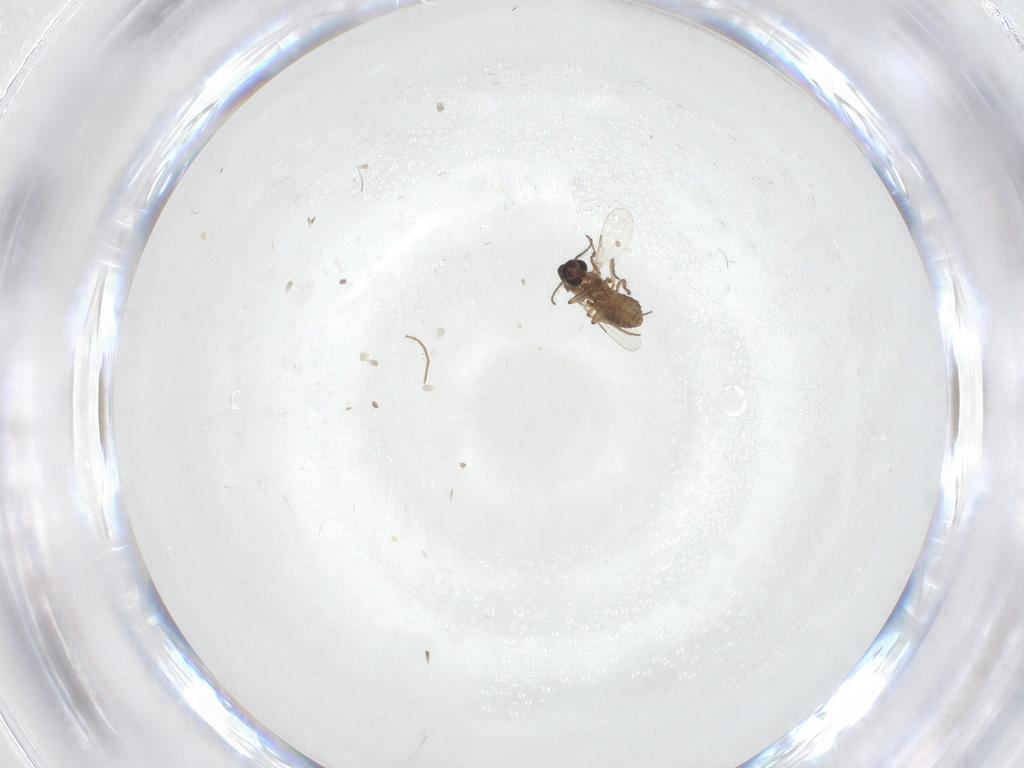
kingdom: Animalia
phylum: Arthropoda
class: Insecta
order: Diptera
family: Ceratopogonidae
